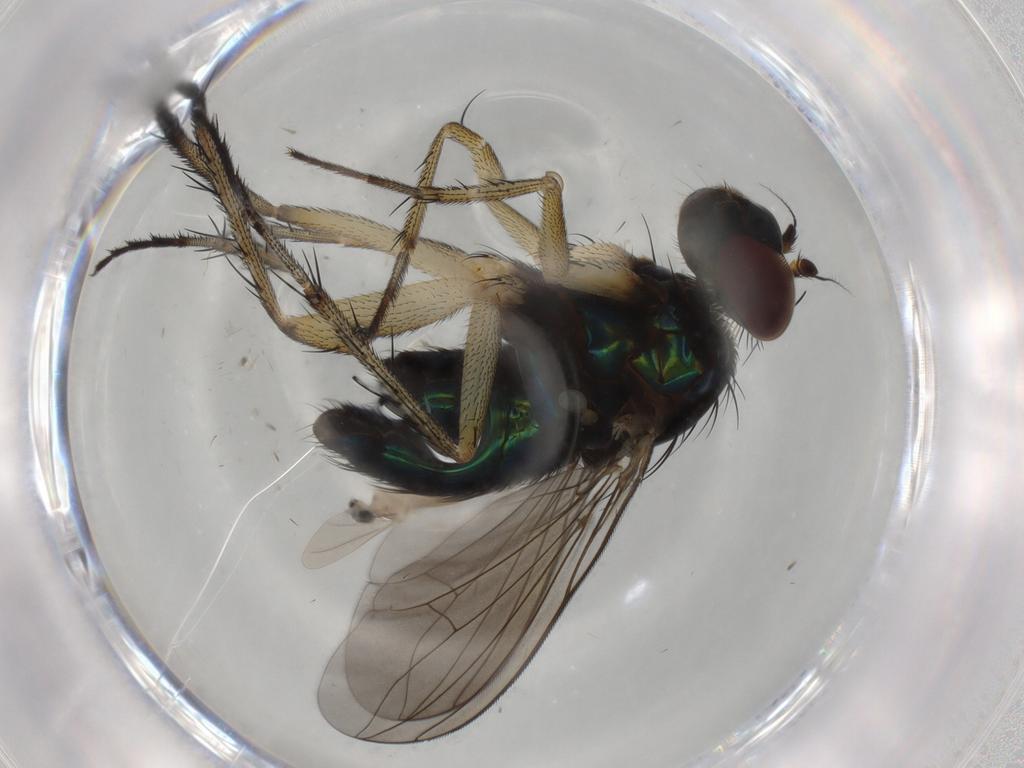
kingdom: Animalia
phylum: Arthropoda
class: Insecta
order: Diptera
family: Dolichopodidae
